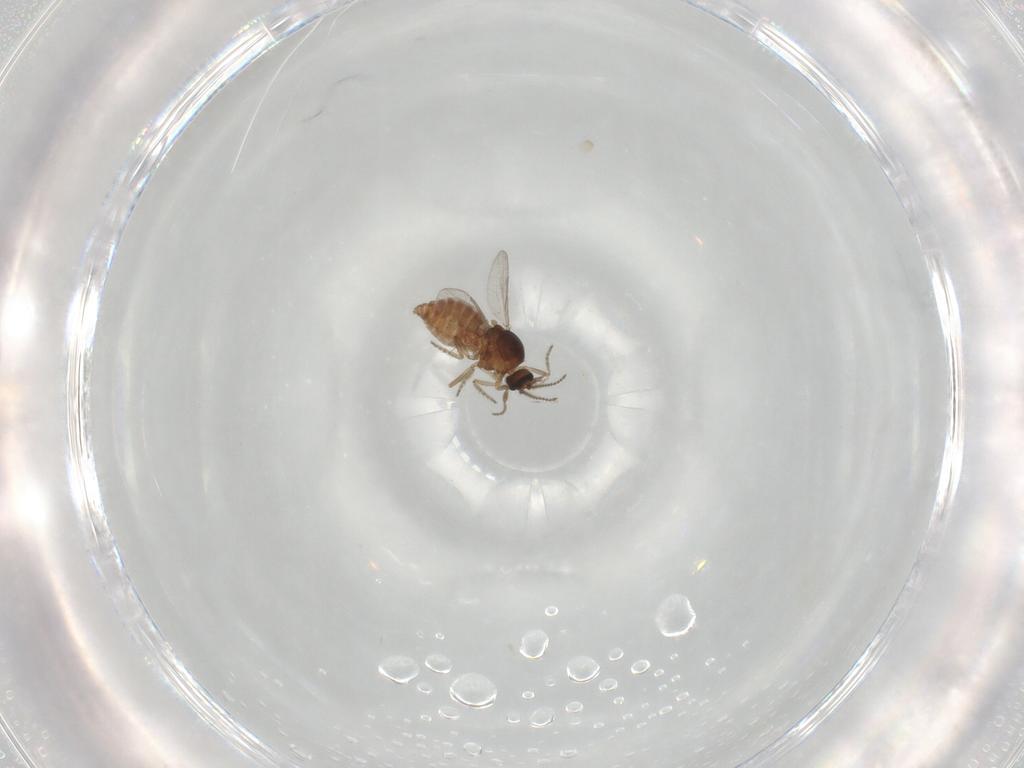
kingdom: Animalia
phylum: Arthropoda
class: Insecta
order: Diptera
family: Ceratopogonidae
